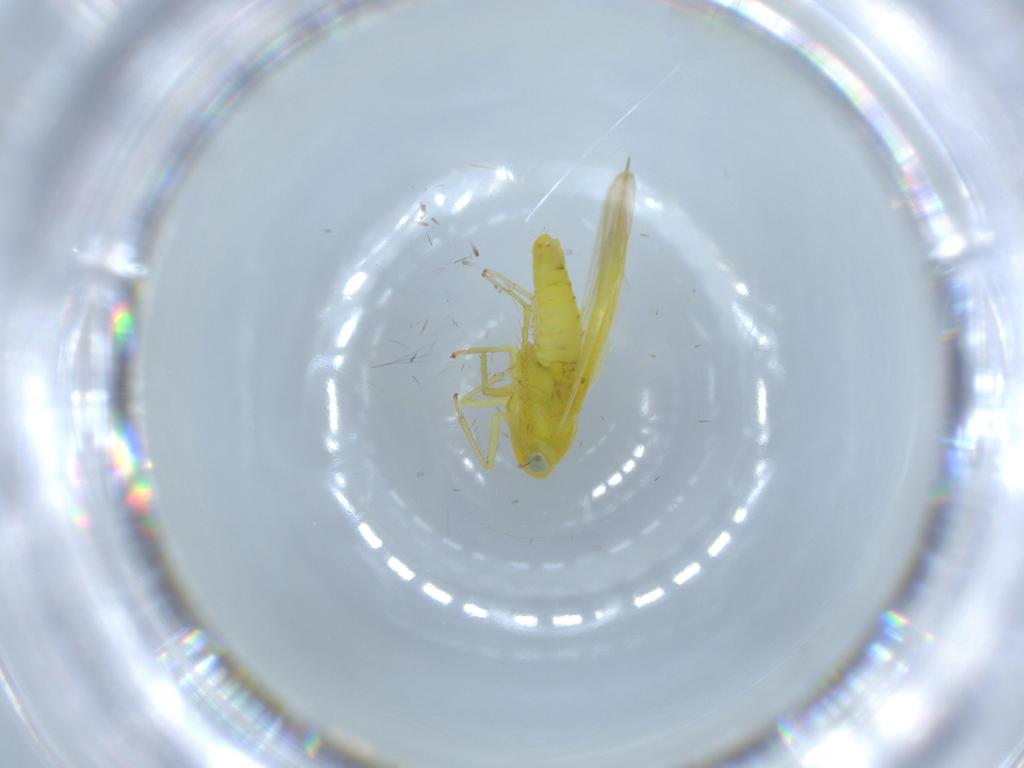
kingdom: Animalia
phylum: Arthropoda
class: Insecta
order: Hemiptera
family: Cicadellidae
